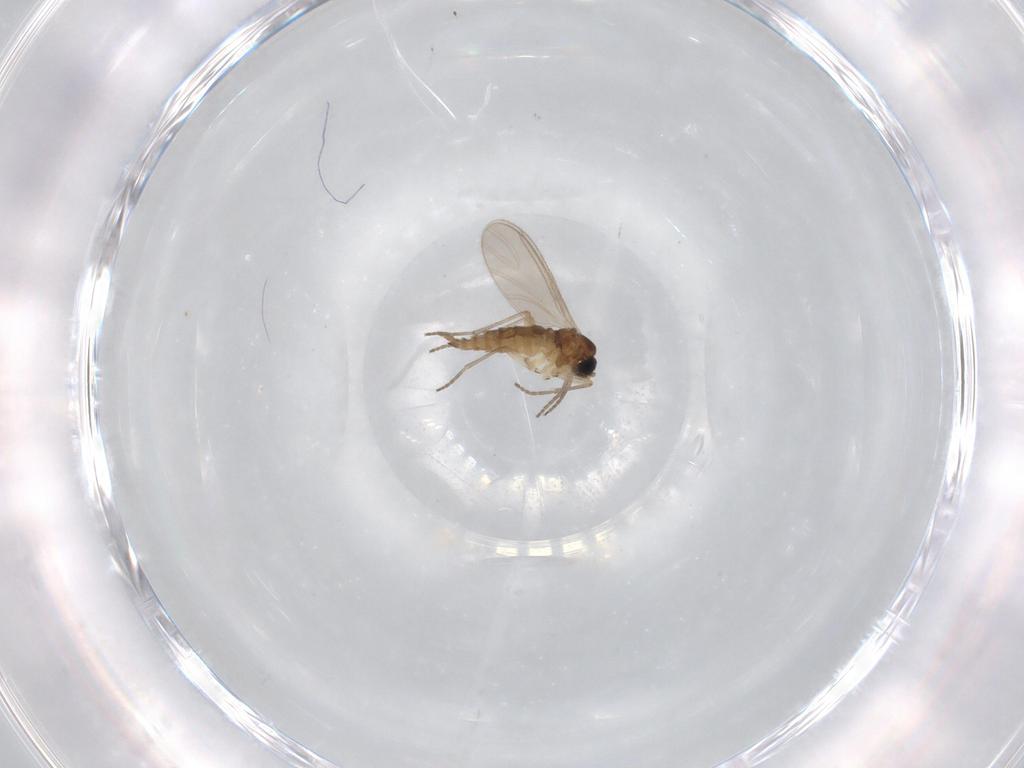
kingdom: Animalia
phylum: Arthropoda
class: Insecta
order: Diptera
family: Sciaridae
